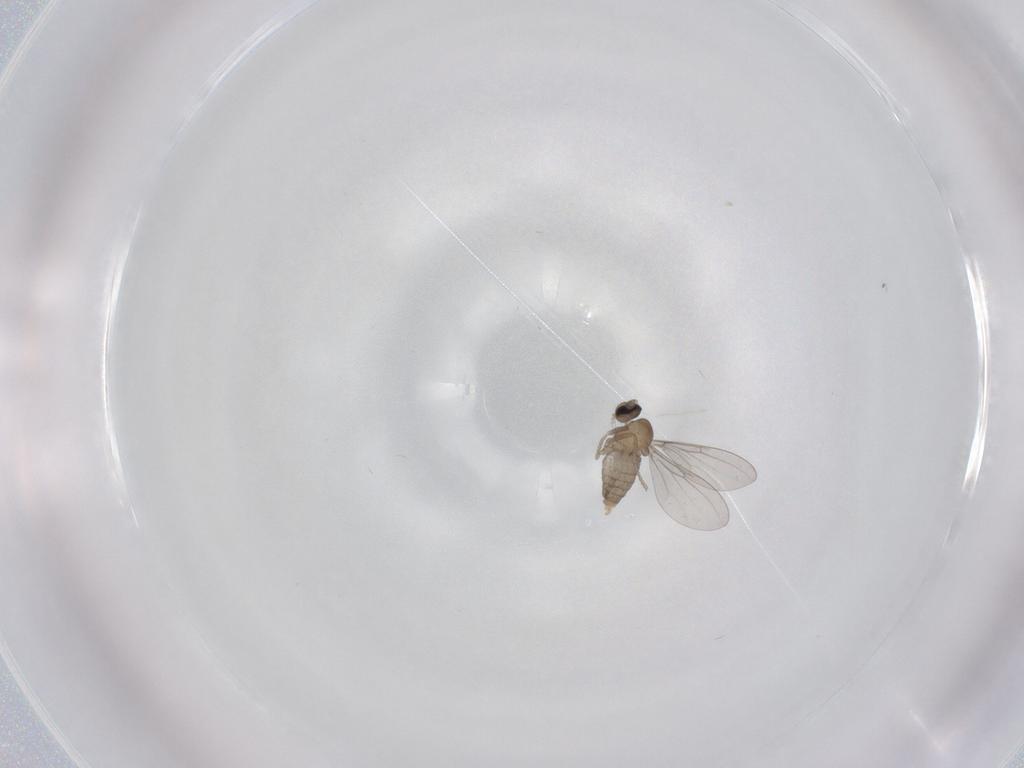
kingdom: Animalia
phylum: Arthropoda
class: Insecta
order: Diptera
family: Cecidomyiidae
